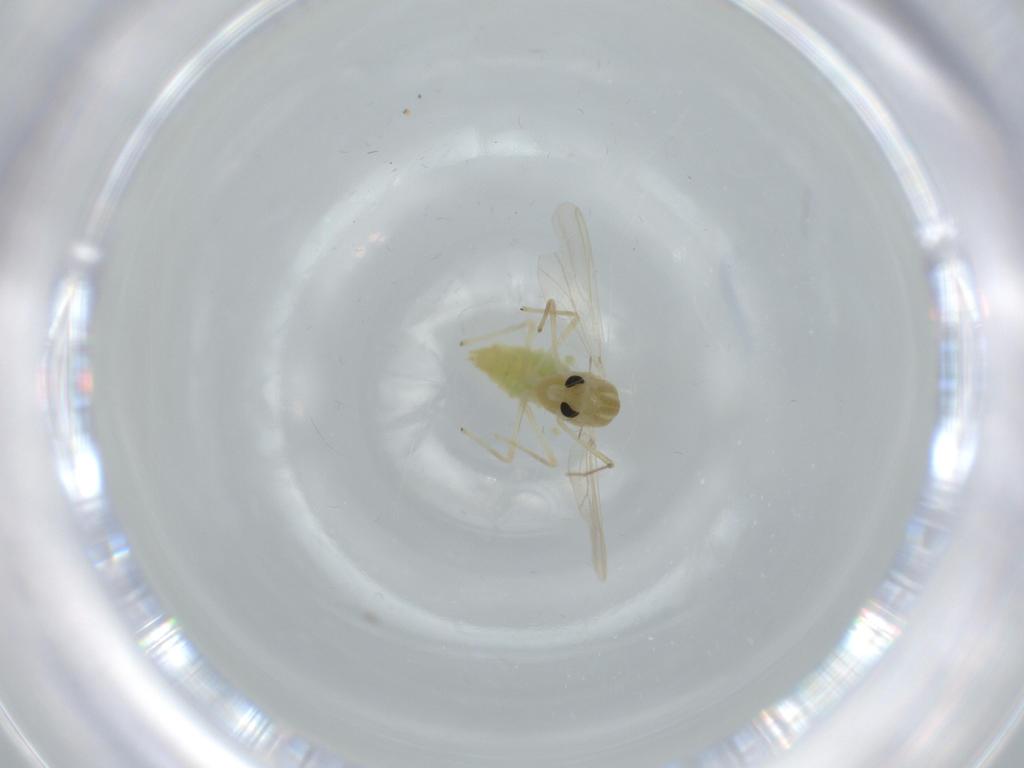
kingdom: Animalia
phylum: Arthropoda
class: Insecta
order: Diptera
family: Chironomidae
